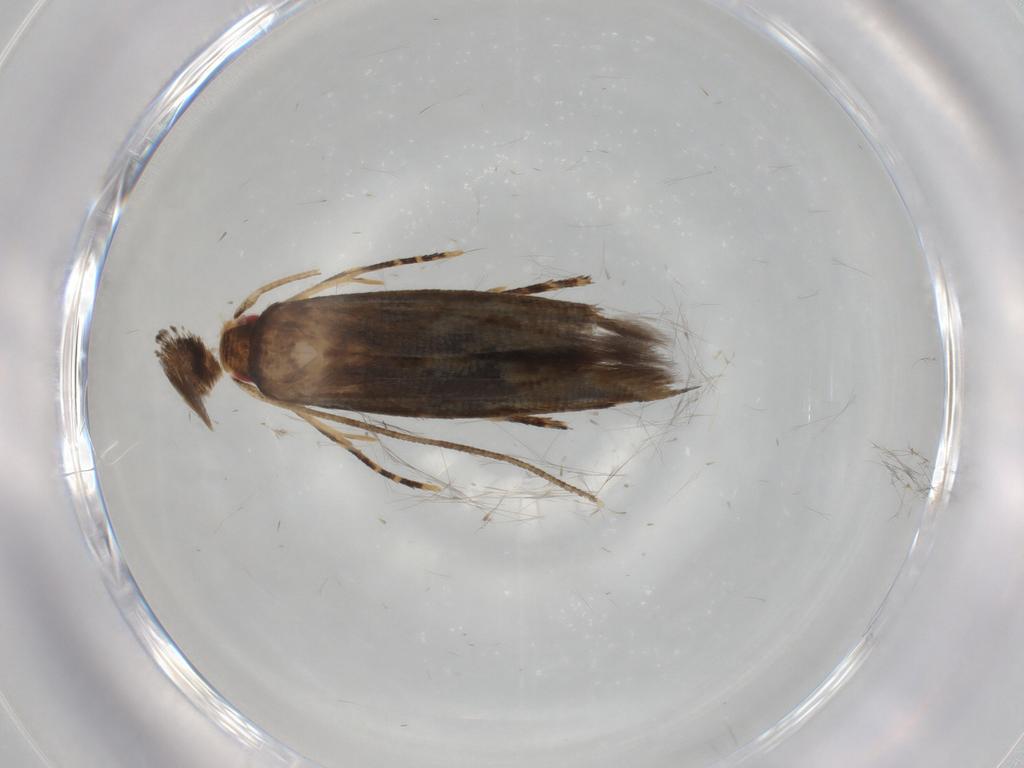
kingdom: Animalia
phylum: Arthropoda
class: Insecta
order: Lepidoptera
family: Momphidae
